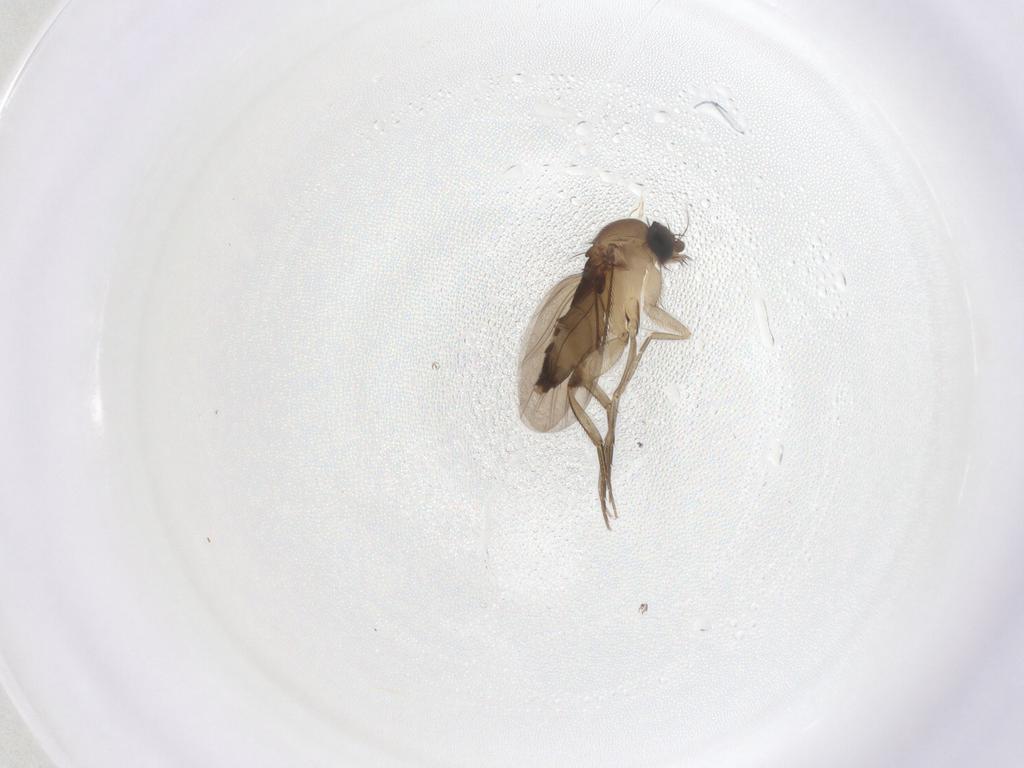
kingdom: Animalia
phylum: Arthropoda
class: Insecta
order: Diptera
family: Phoridae
